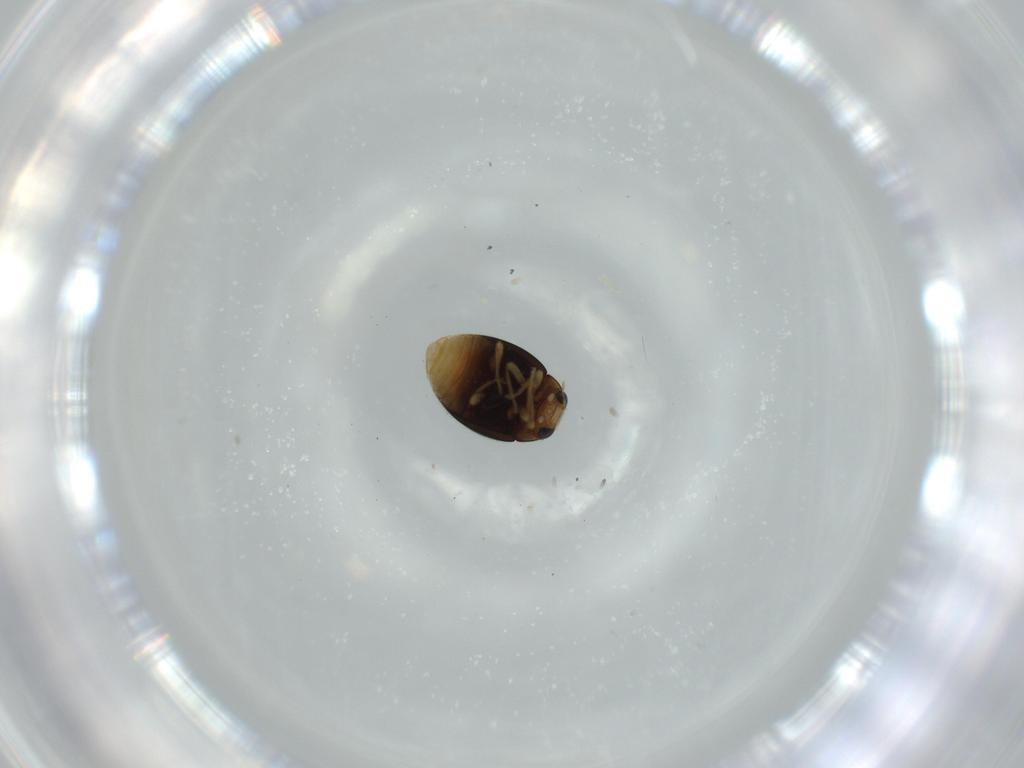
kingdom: Animalia
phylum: Arthropoda
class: Insecta
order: Coleoptera
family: Coccinellidae
